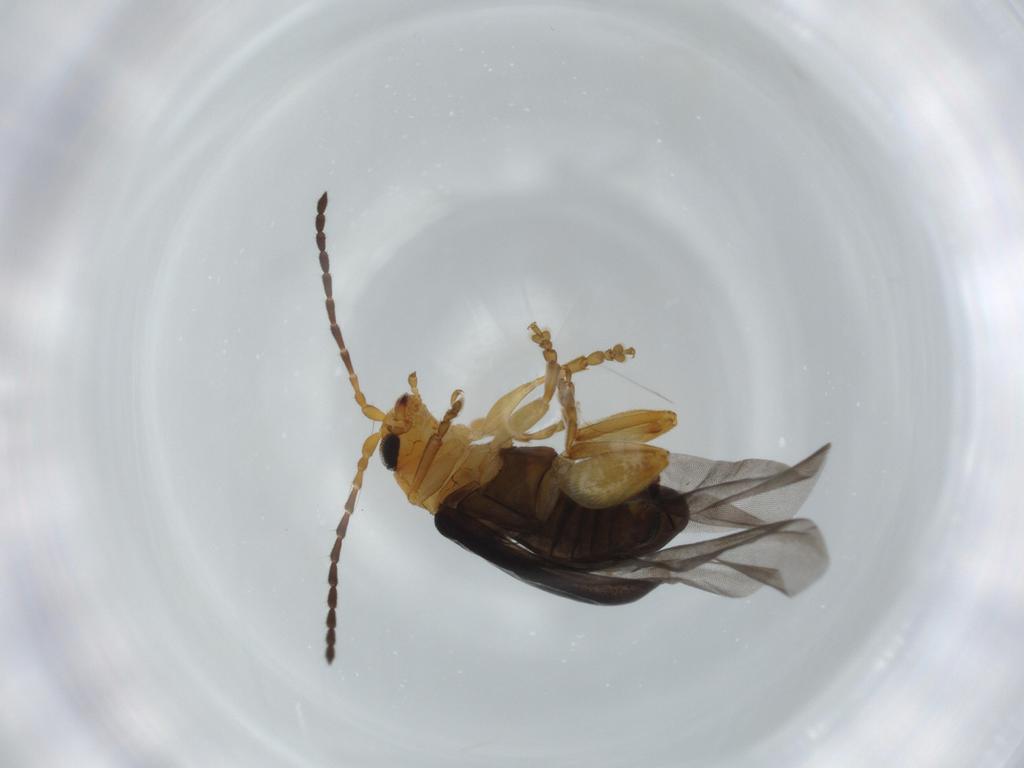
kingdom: Animalia
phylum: Arthropoda
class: Insecta
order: Coleoptera
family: Chrysomelidae
